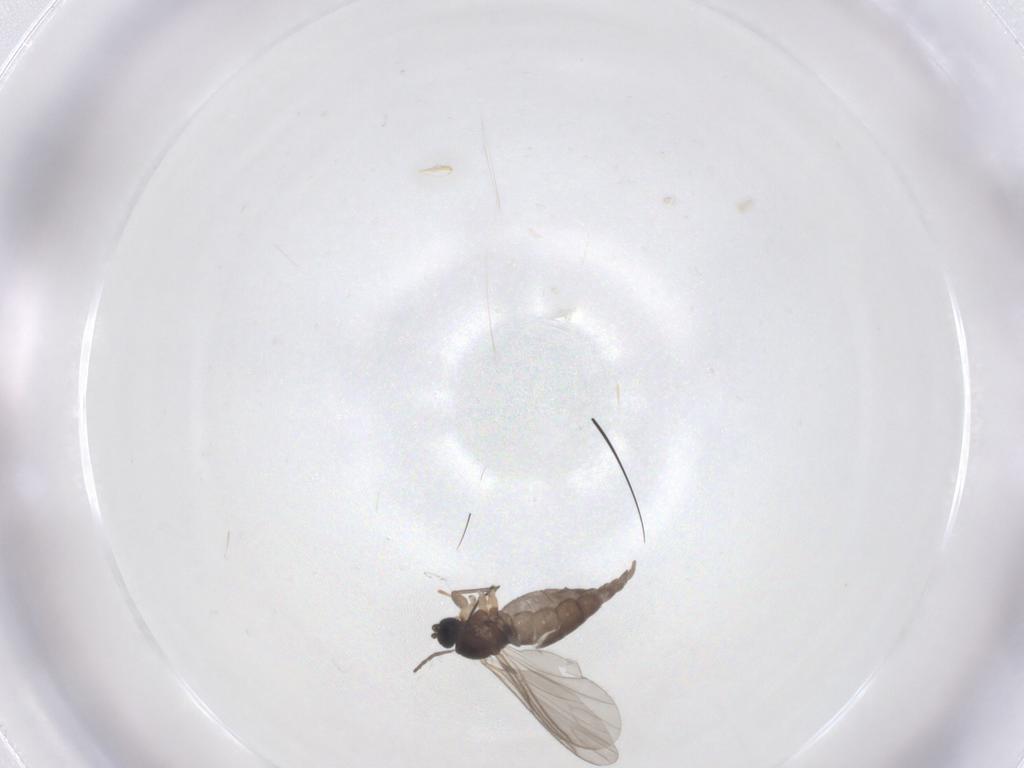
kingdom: Animalia
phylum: Arthropoda
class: Insecta
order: Diptera
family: Sciaridae
